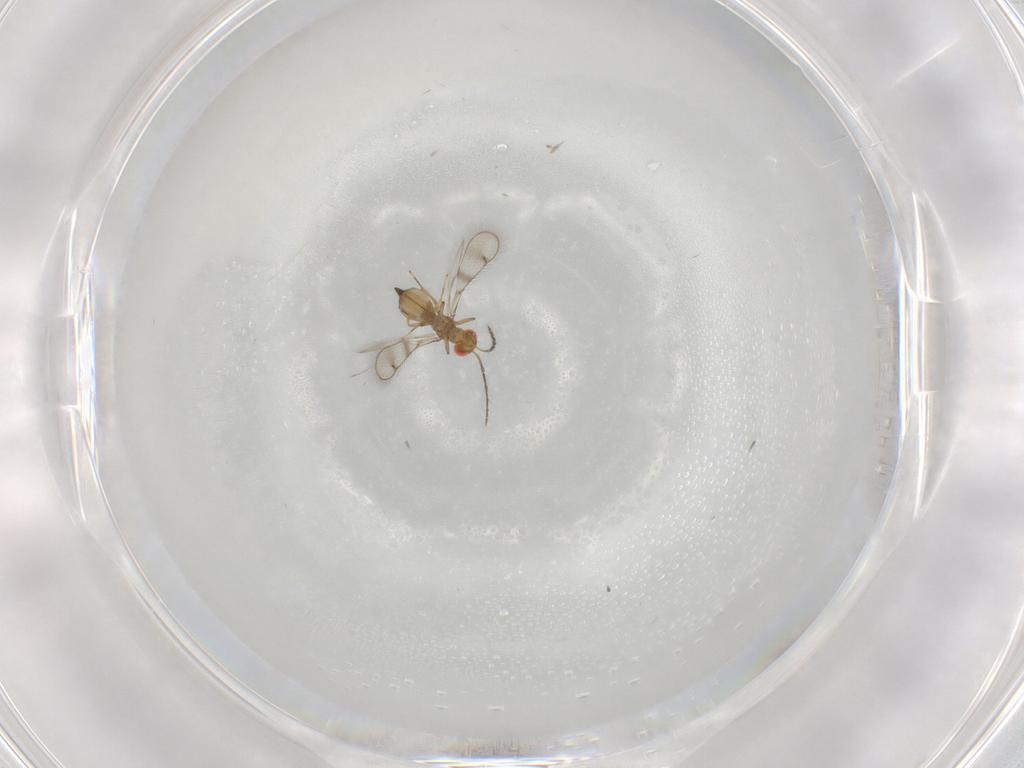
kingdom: Animalia
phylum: Arthropoda
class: Insecta
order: Hymenoptera
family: Eulophidae
